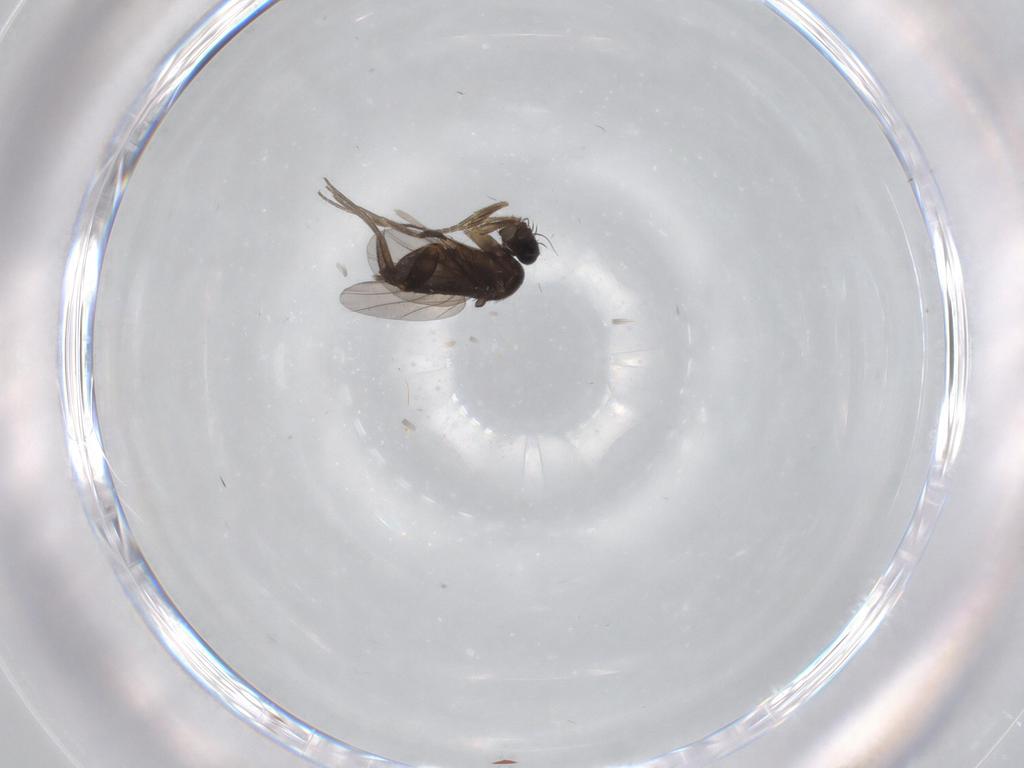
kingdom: Animalia
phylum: Arthropoda
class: Insecta
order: Diptera
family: Phoridae
